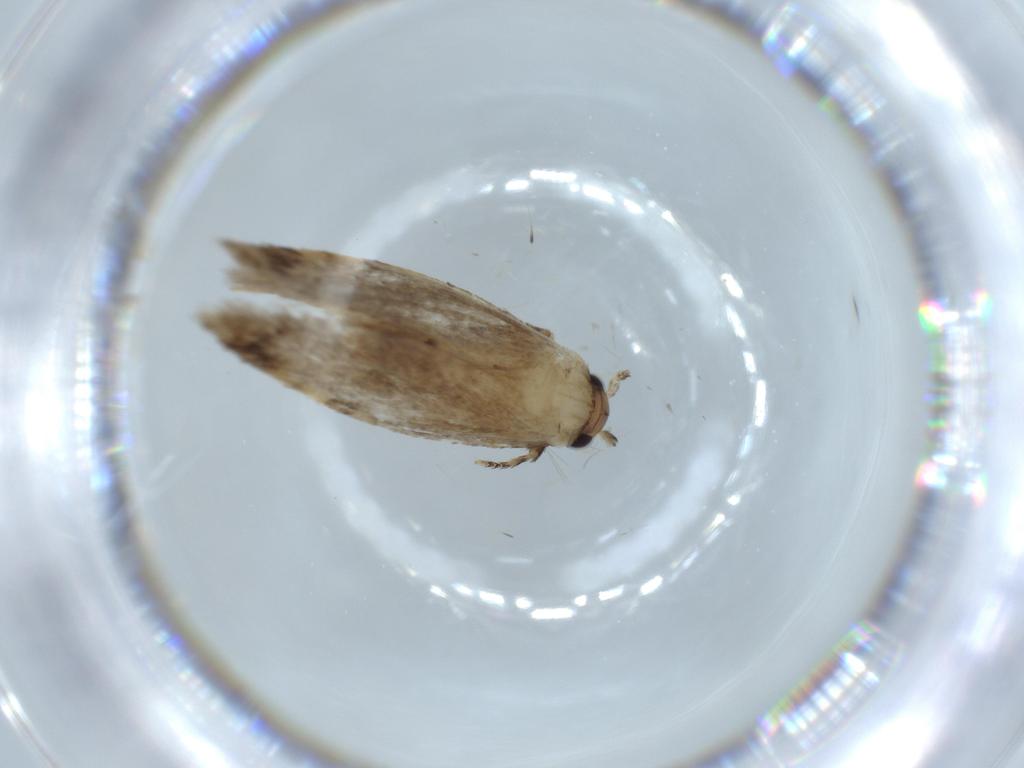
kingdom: Animalia
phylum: Arthropoda
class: Insecta
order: Lepidoptera
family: Tineidae
